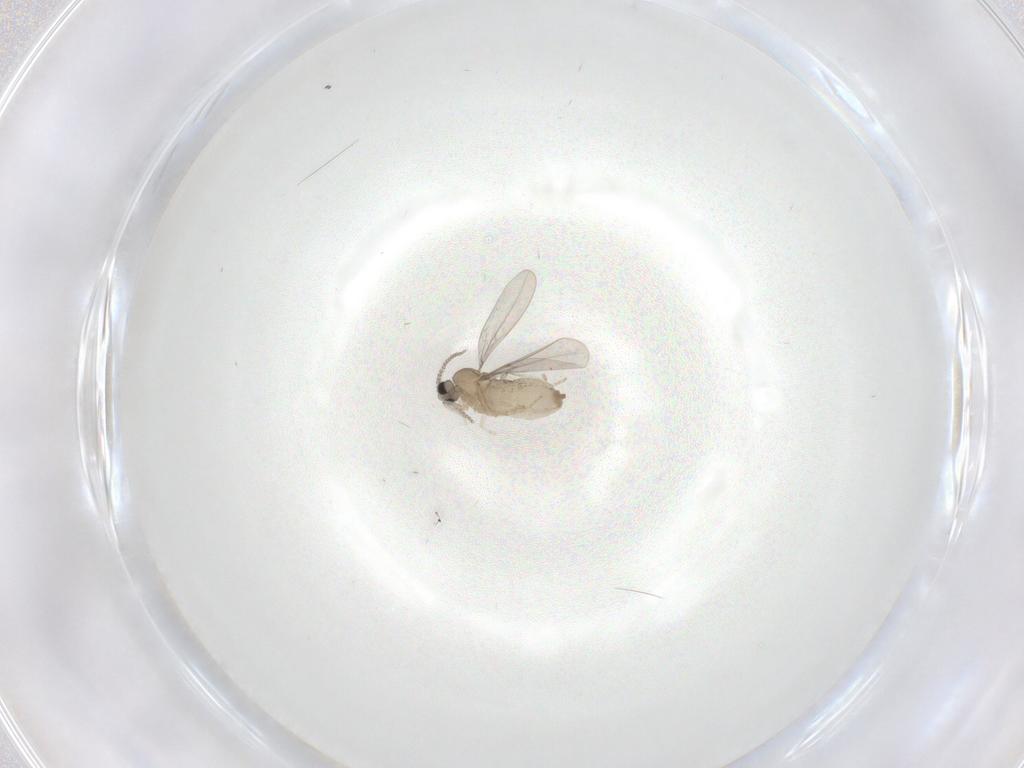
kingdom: Animalia
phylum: Arthropoda
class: Insecta
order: Diptera
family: Cecidomyiidae
